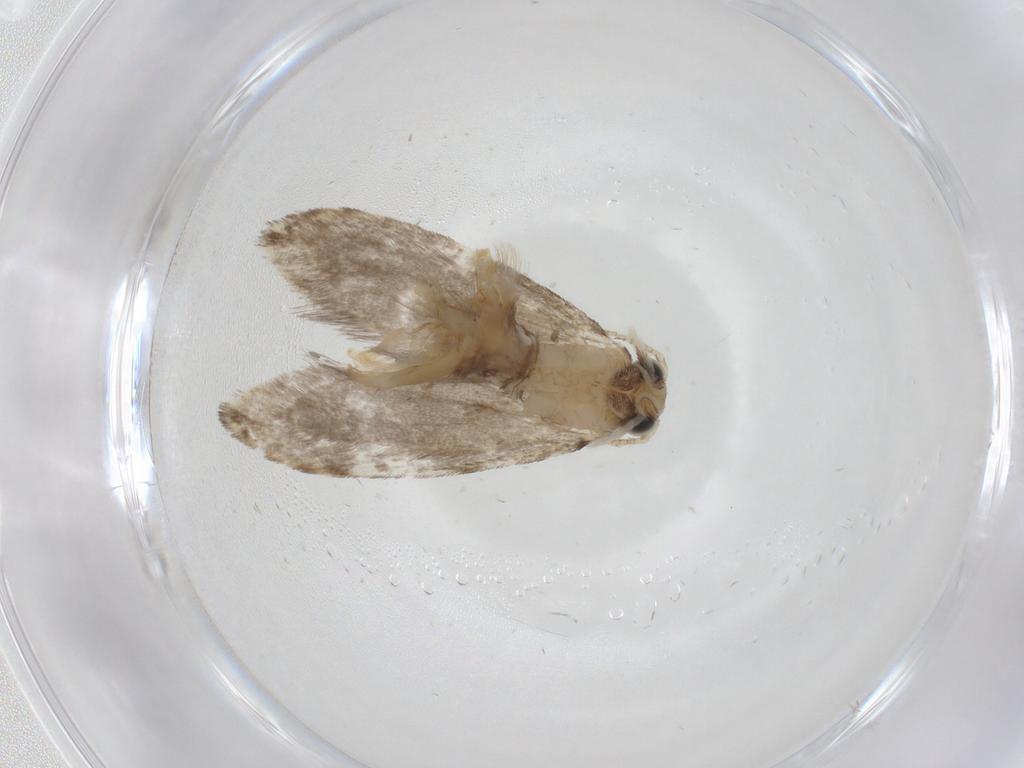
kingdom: Animalia
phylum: Arthropoda
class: Insecta
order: Lepidoptera
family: Tineidae
